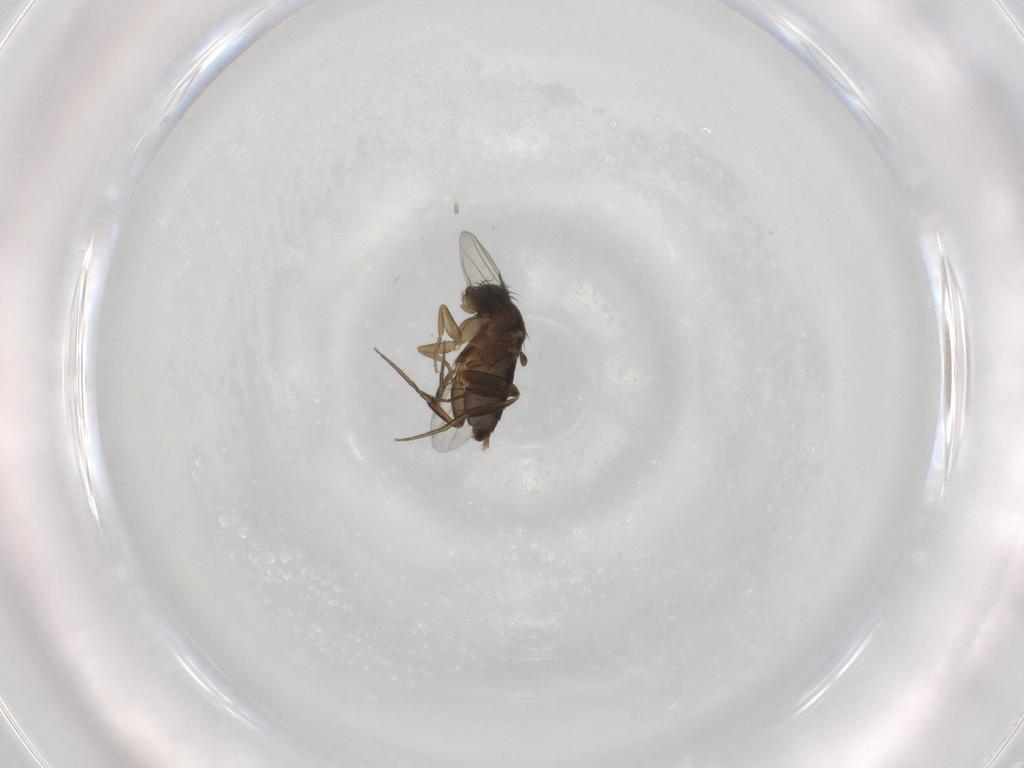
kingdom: Animalia
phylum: Arthropoda
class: Insecta
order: Diptera
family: Phoridae
